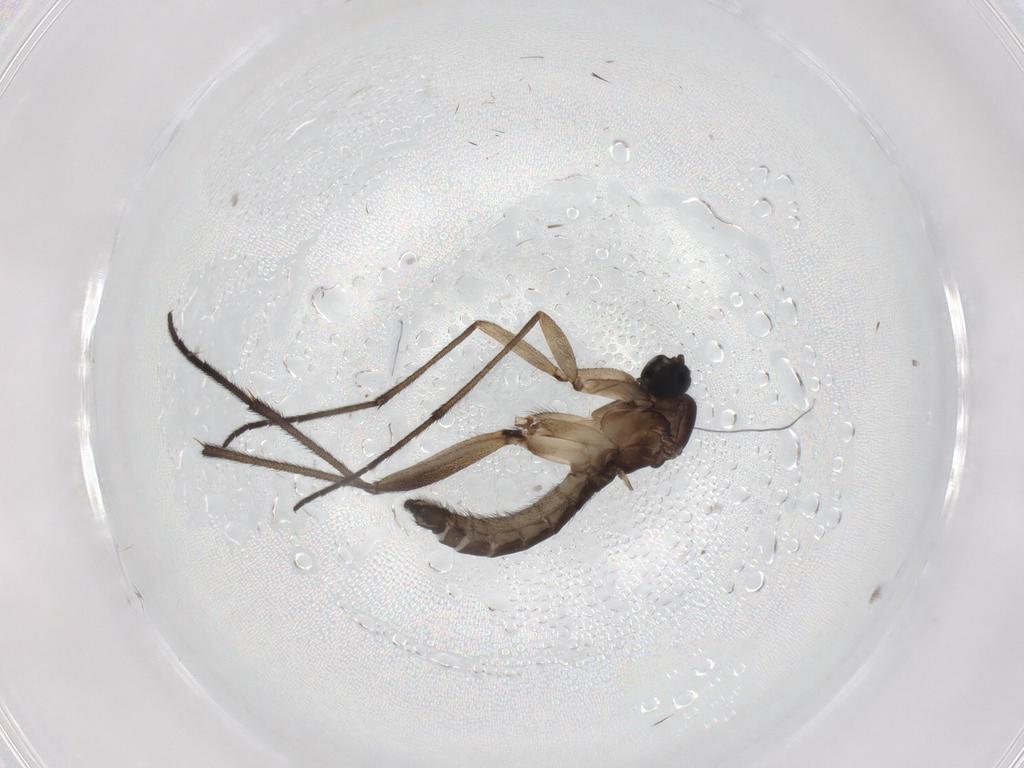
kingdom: Animalia
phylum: Arthropoda
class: Insecta
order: Diptera
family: Sciaridae
